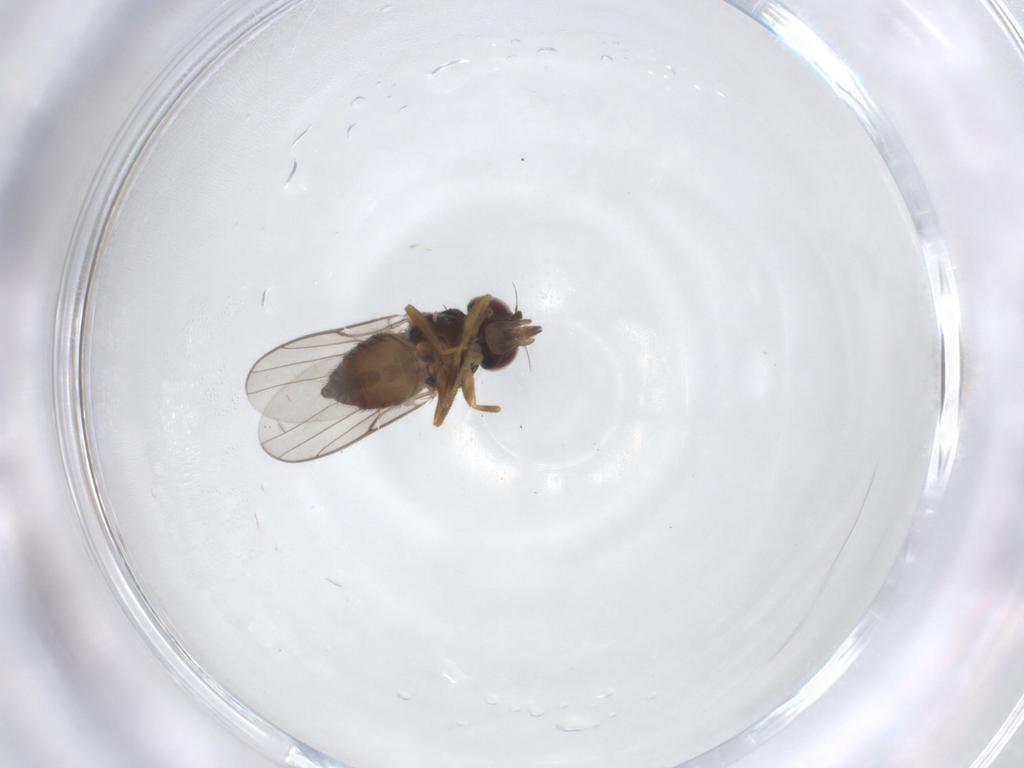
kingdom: Animalia
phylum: Arthropoda
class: Insecta
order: Diptera
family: Chloropidae
